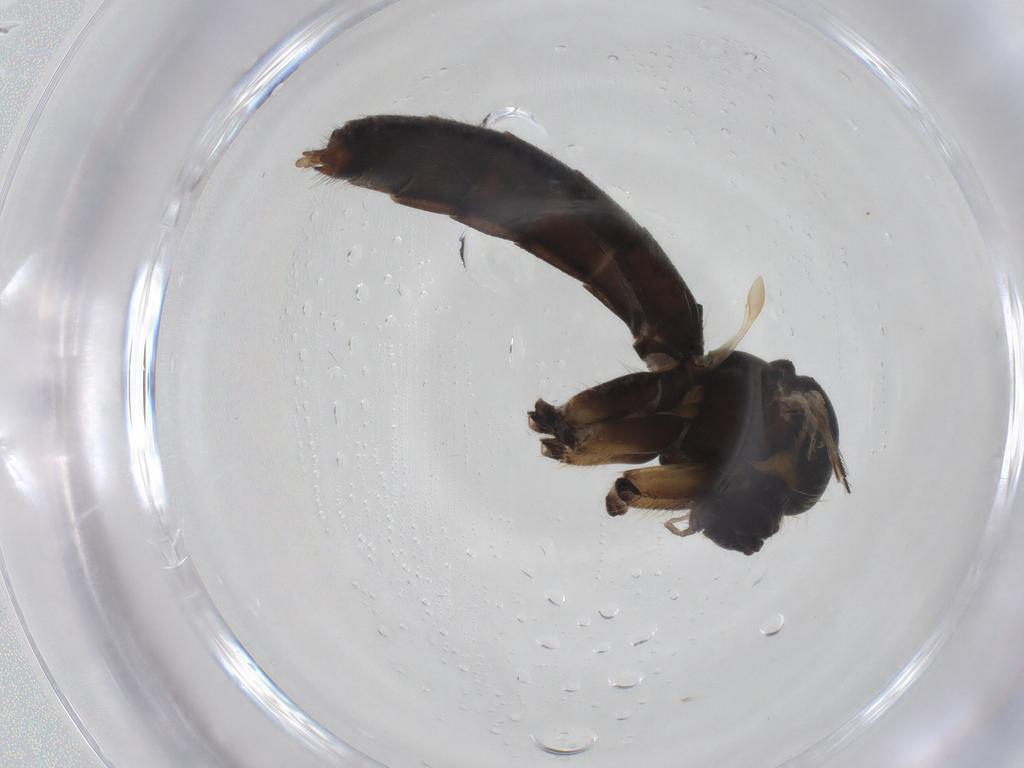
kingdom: Animalia
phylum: Arthropoda
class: Insecta
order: Diptera
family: Mycetophilidae
